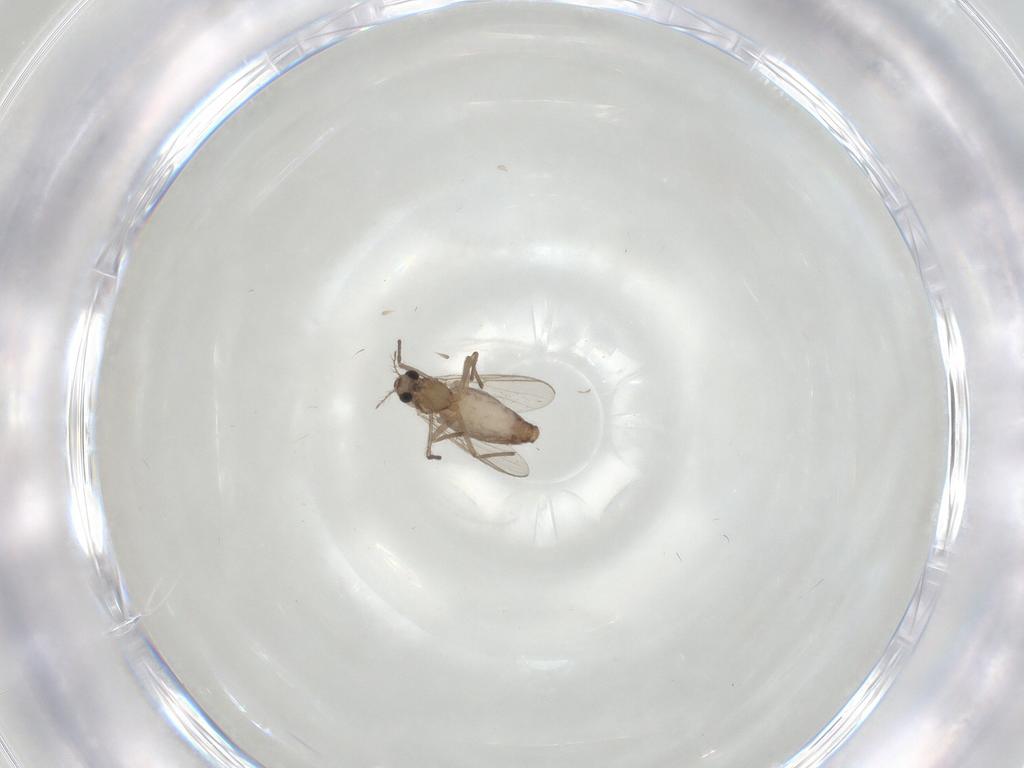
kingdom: Animalia
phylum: Arthropoda
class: Insecta
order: Diptera
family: Chironomidae
